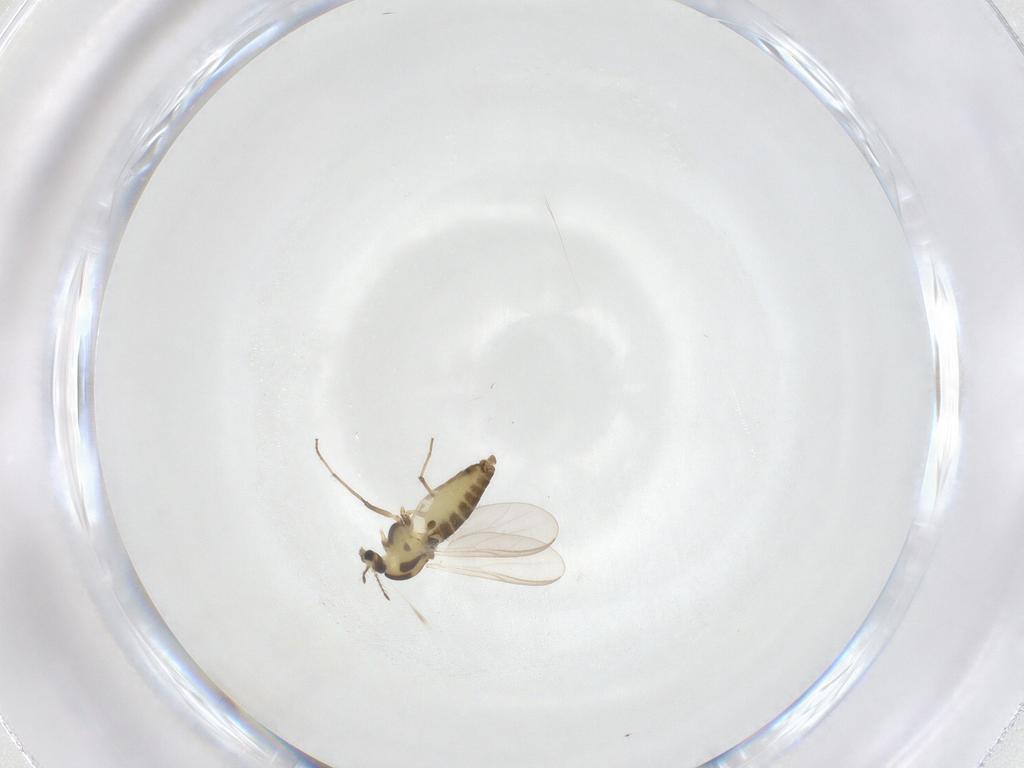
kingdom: Animalia
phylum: Arthropoda
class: Insecta
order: Diptera
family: Chironomidae
